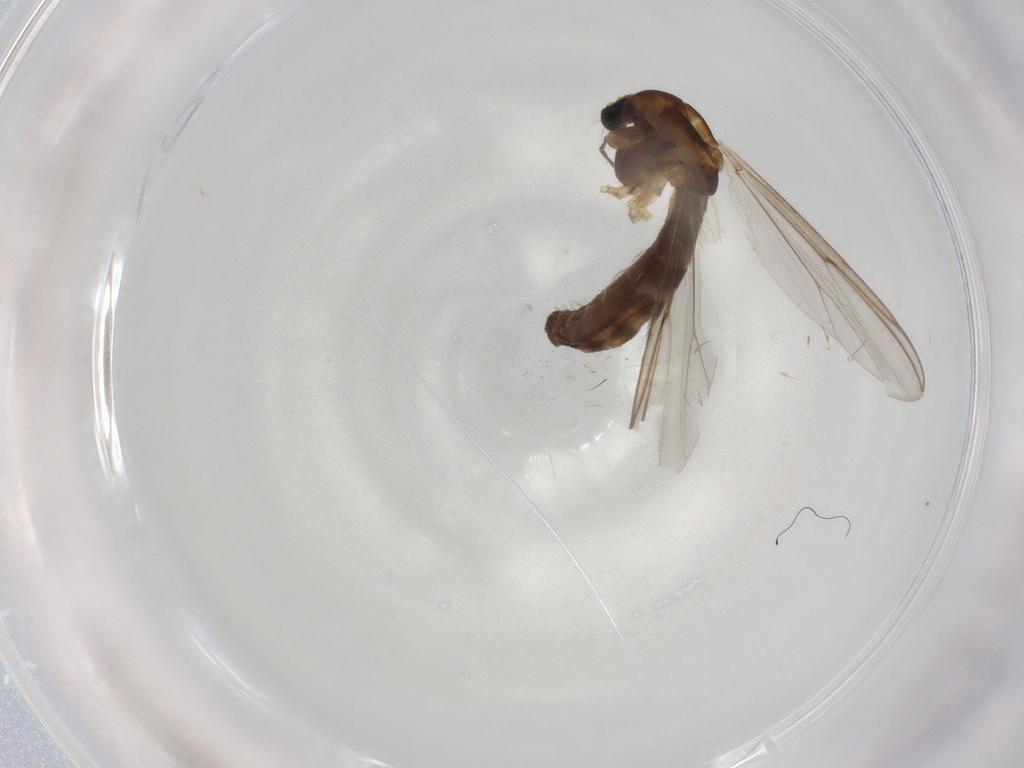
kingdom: Animalia
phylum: Arthropoda
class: Insecta
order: Diptera
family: Chironomidae
